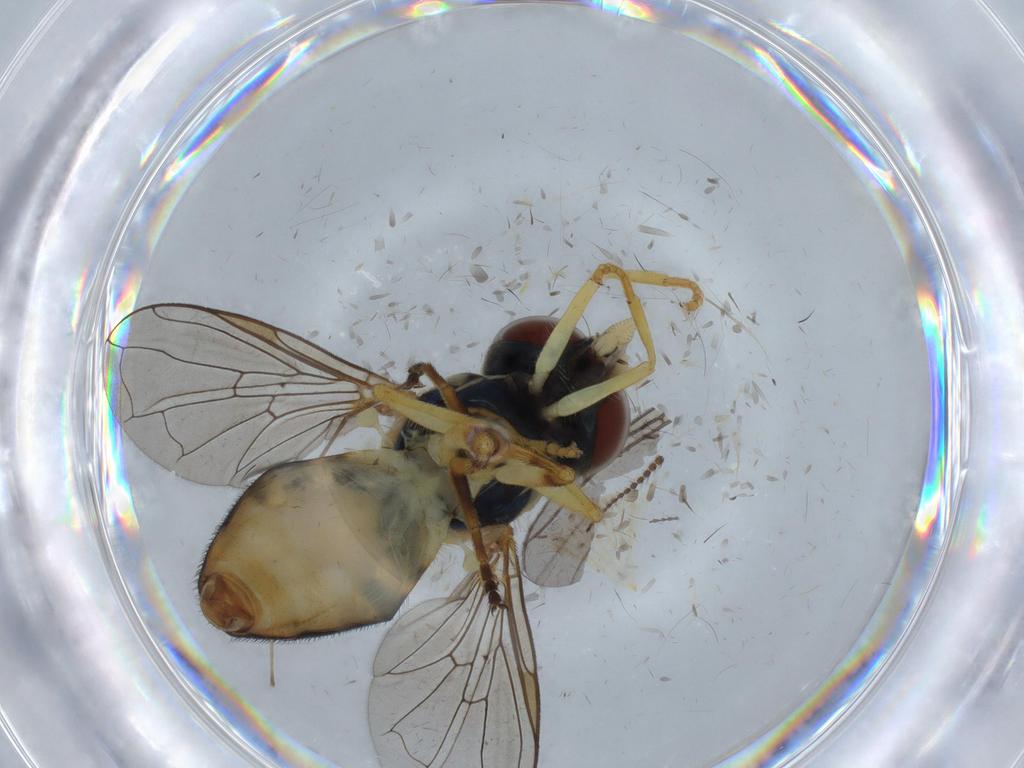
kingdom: Animalia
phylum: Arthropoda
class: Insecta
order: Diptera
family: Syrphidae
